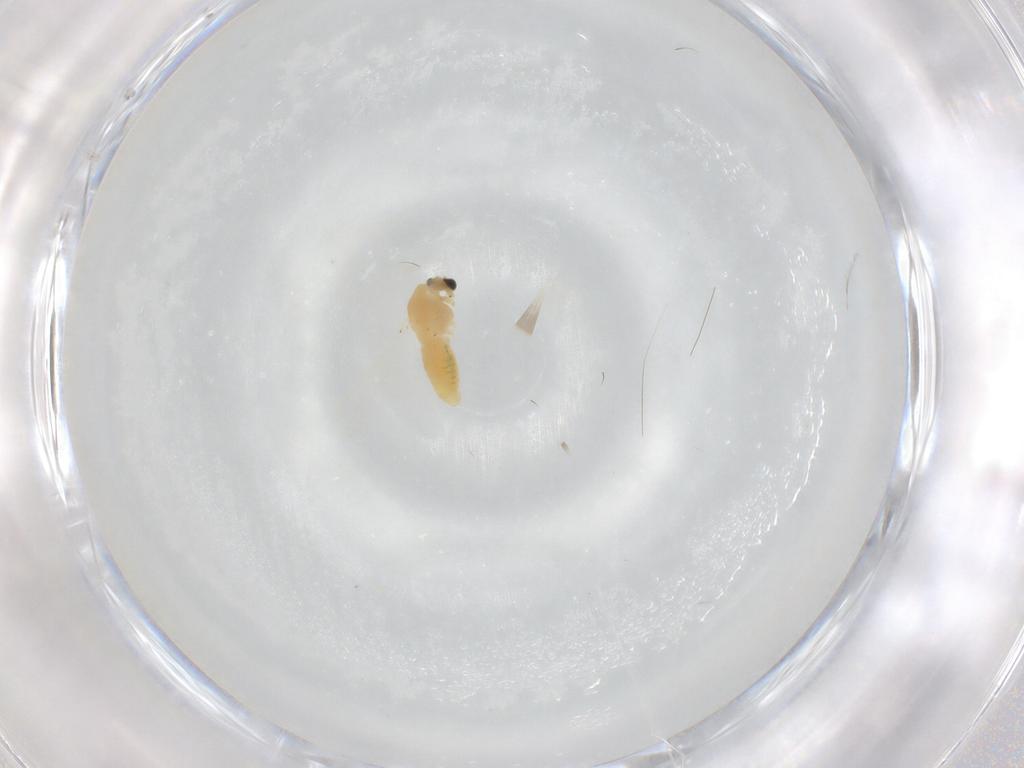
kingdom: Animalia
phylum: Arthropoda
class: Insecta
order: Diptera
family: Chironomidae
